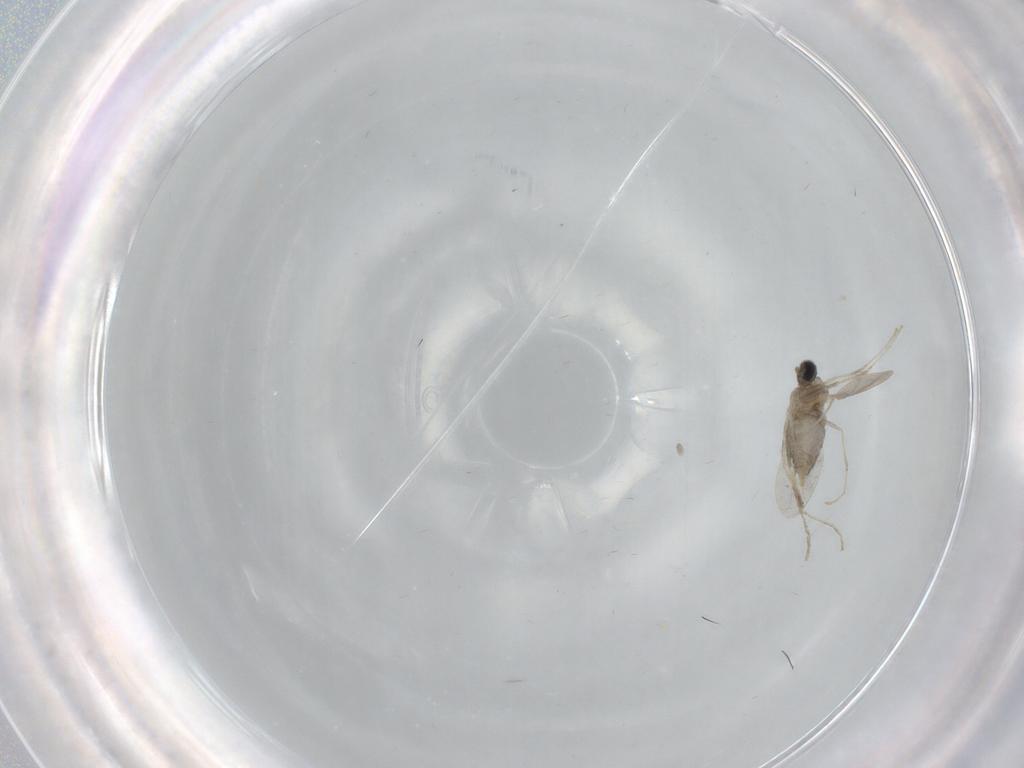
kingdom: Animalia
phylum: Arthropoda
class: Insecta
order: Diptera
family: Cecidomyiidae
